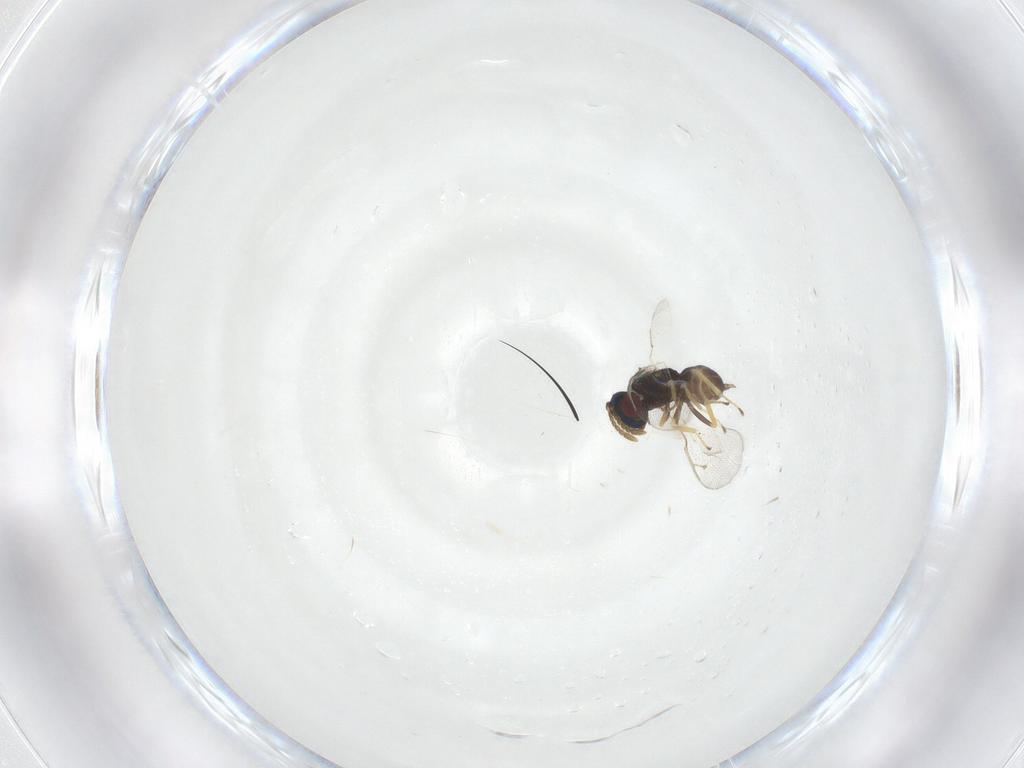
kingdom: Animalia
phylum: Arthropoda
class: Insecta
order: Hymenoptera
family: Pteromalidae
